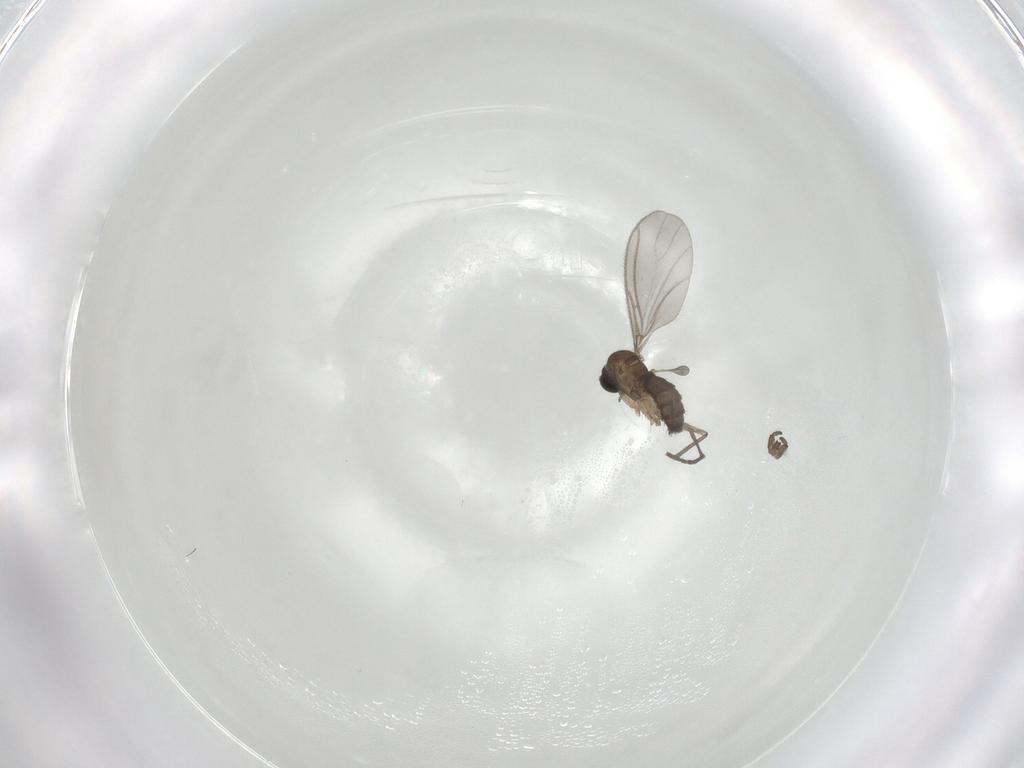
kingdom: Animalia
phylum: Arthropoda
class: Insecta
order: Diptera
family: Sciaridae
